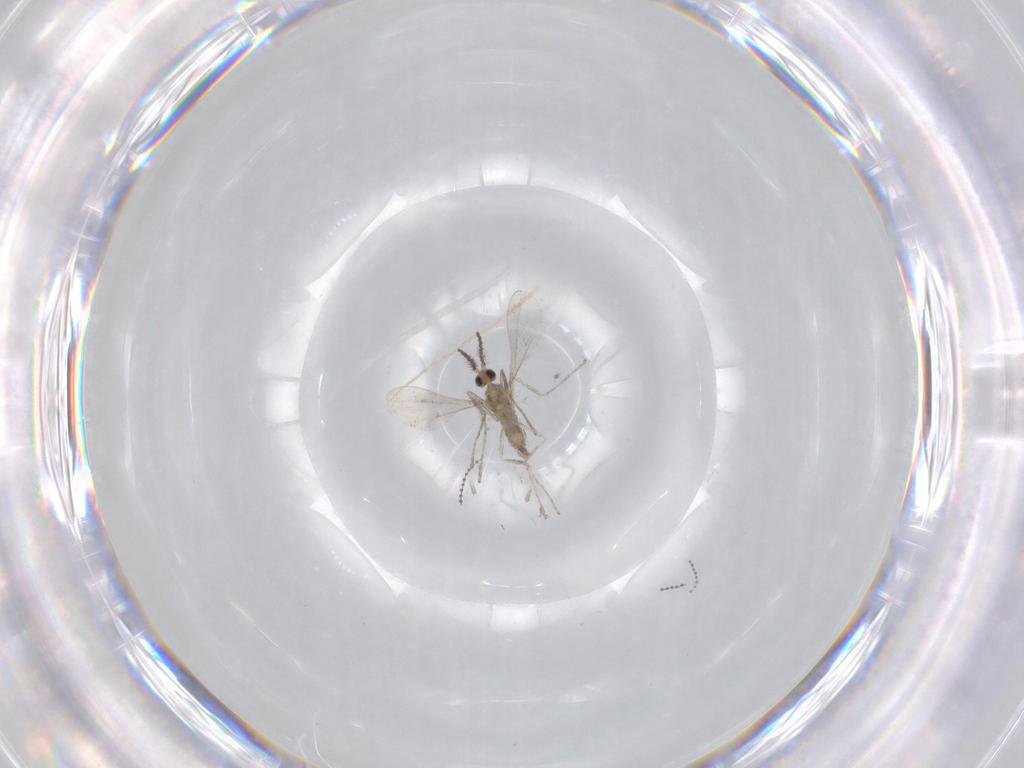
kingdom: Animalia
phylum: Arthropoda
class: Insecta
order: Diptera
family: Cecidomyiidae
